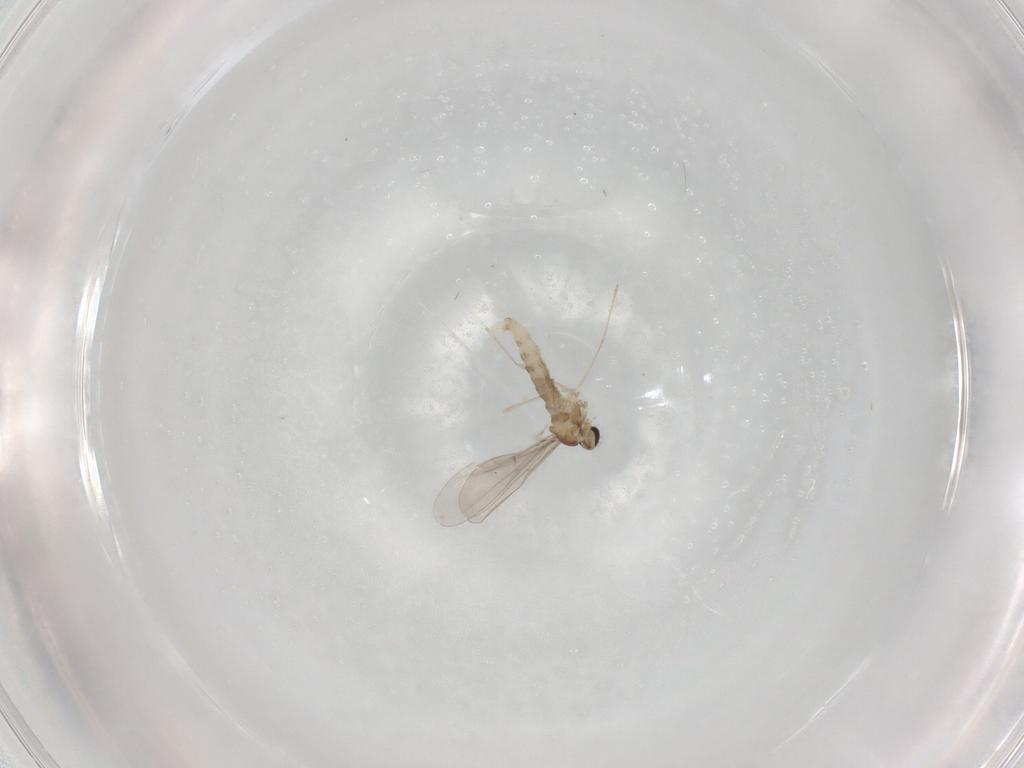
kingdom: Animalia
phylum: Arthropoda
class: Insecta
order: Diptera
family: Cecidomyiidae
